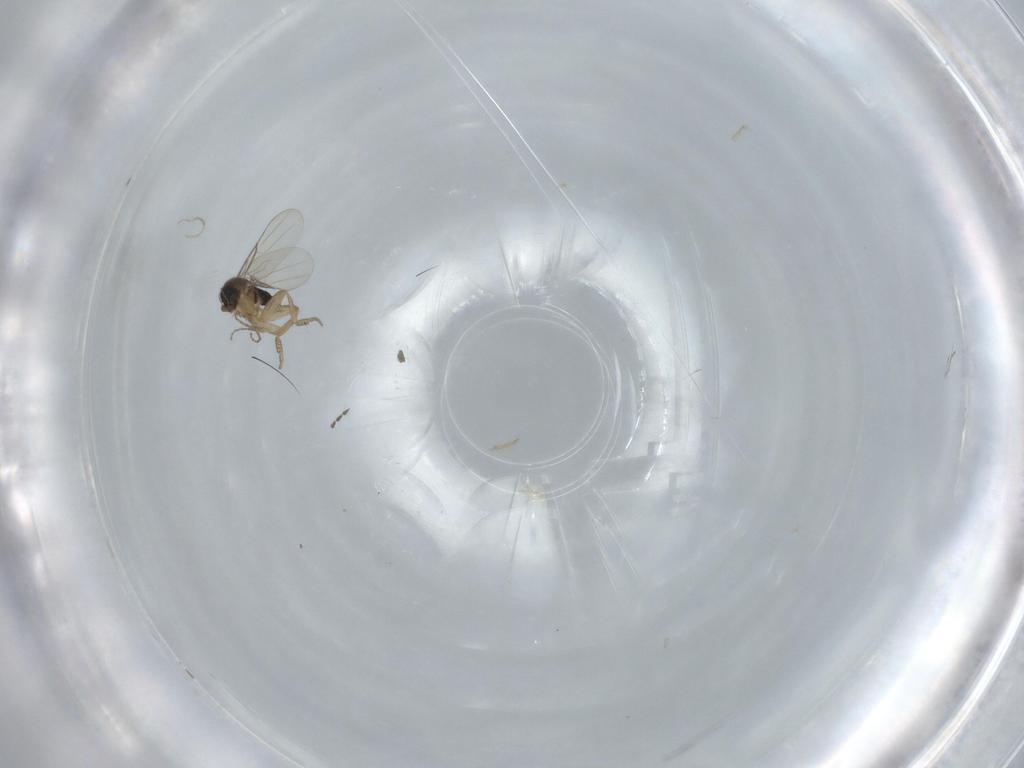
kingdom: Animalia
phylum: Arthropoda
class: Insecta
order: Diptera
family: Phoridae
